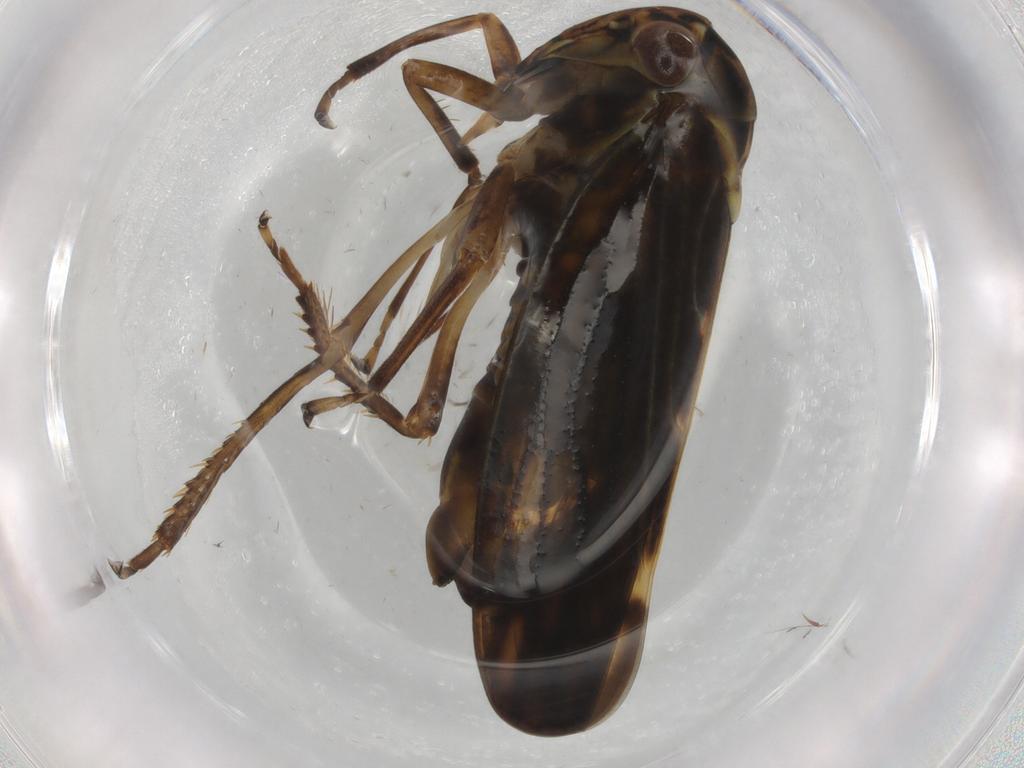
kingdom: Animalia
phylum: Arthropoda
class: Insecta
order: Hemiptera
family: Cicadellidae
